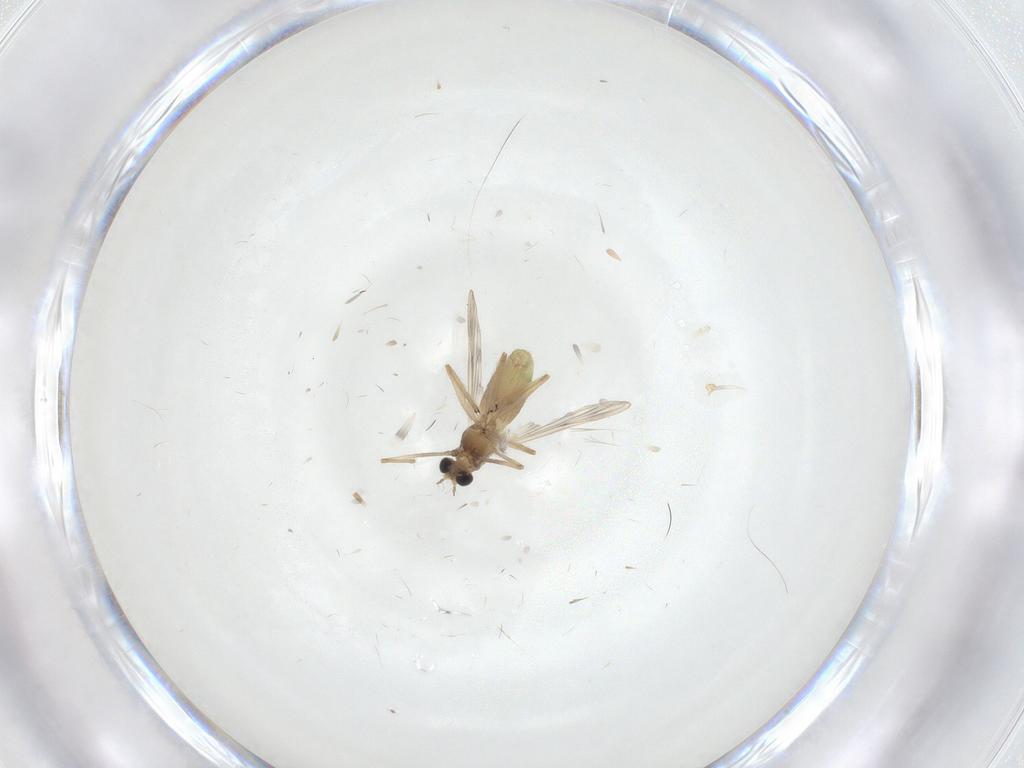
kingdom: Animalia
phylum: Arthropoda
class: Insecta
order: Diptera
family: Chironomidae
